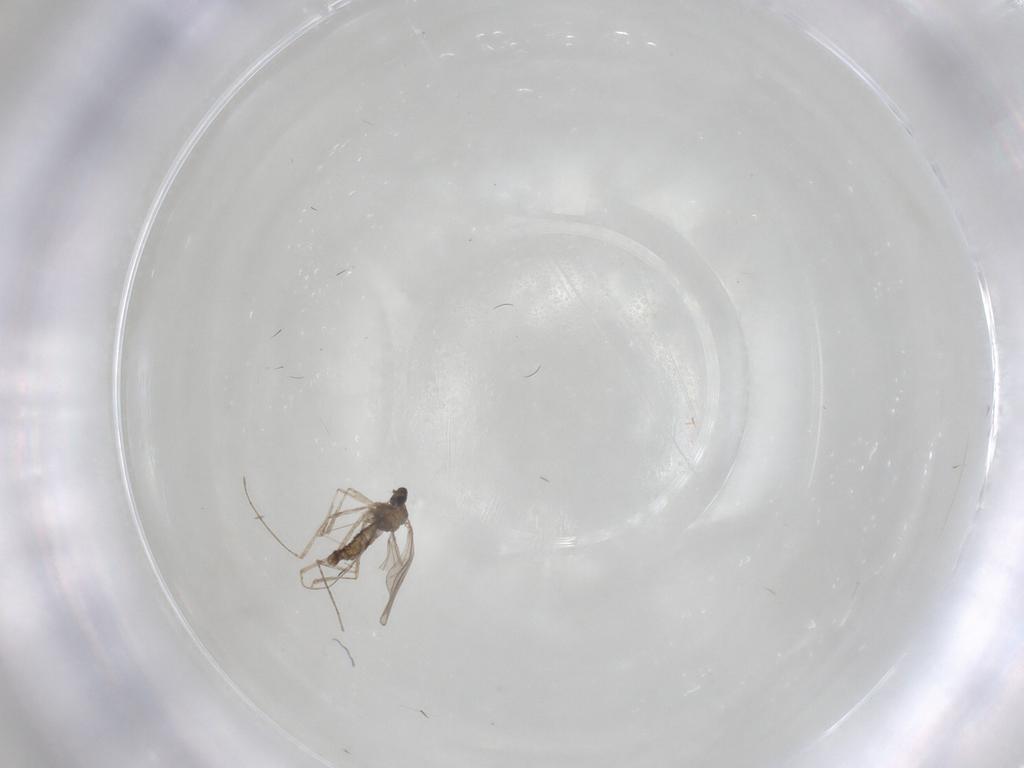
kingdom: Animalia
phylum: Arthropoda
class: Insecta
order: Diptera
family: Cecidomyiidae
